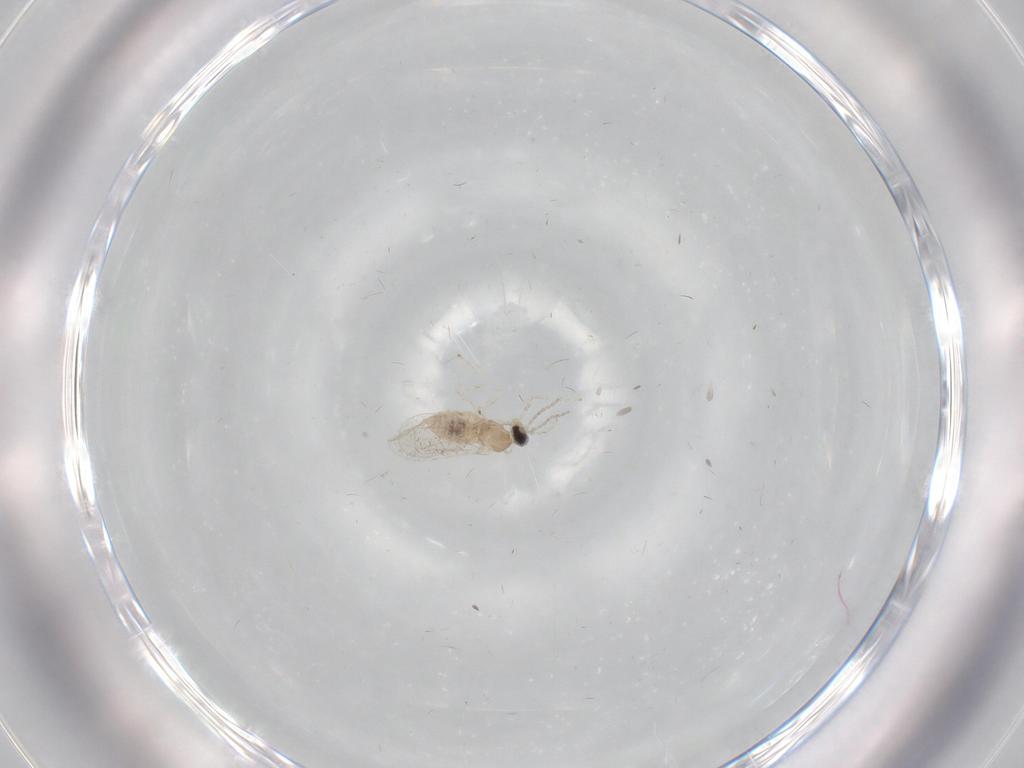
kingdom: Animalia
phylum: Arthropoda
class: Insecta
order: Diptera
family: Cecidomyiidae
